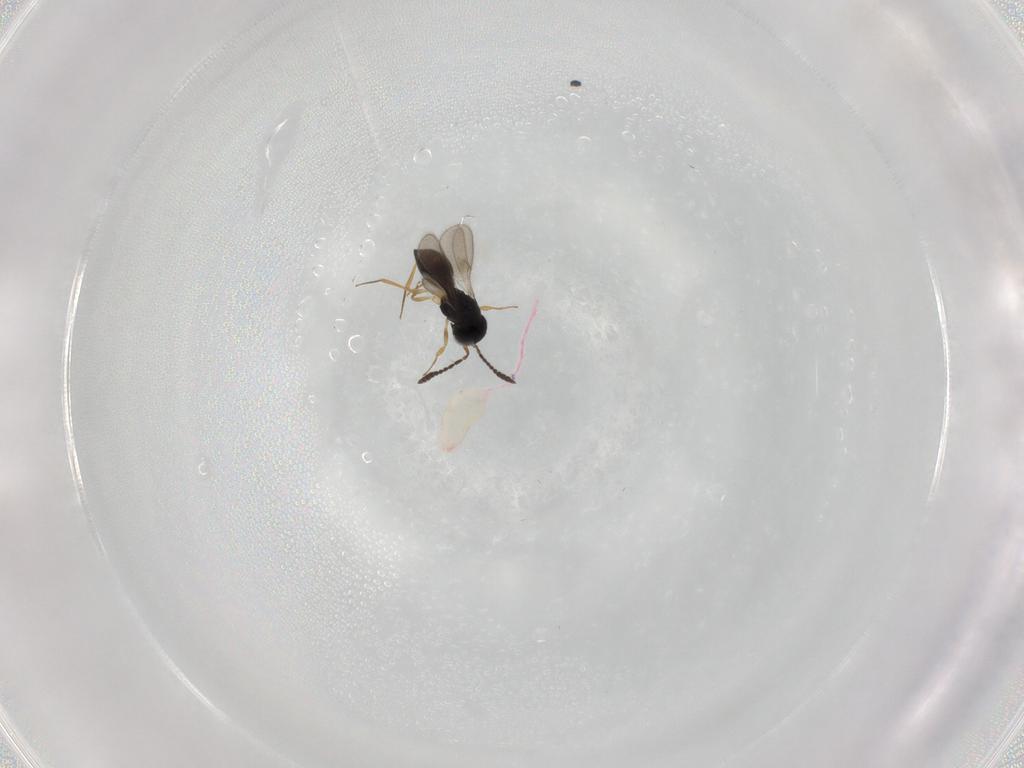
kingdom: Animalia
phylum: Arthropoda
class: Insecta
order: Hymenoptera
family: Scelionidae
